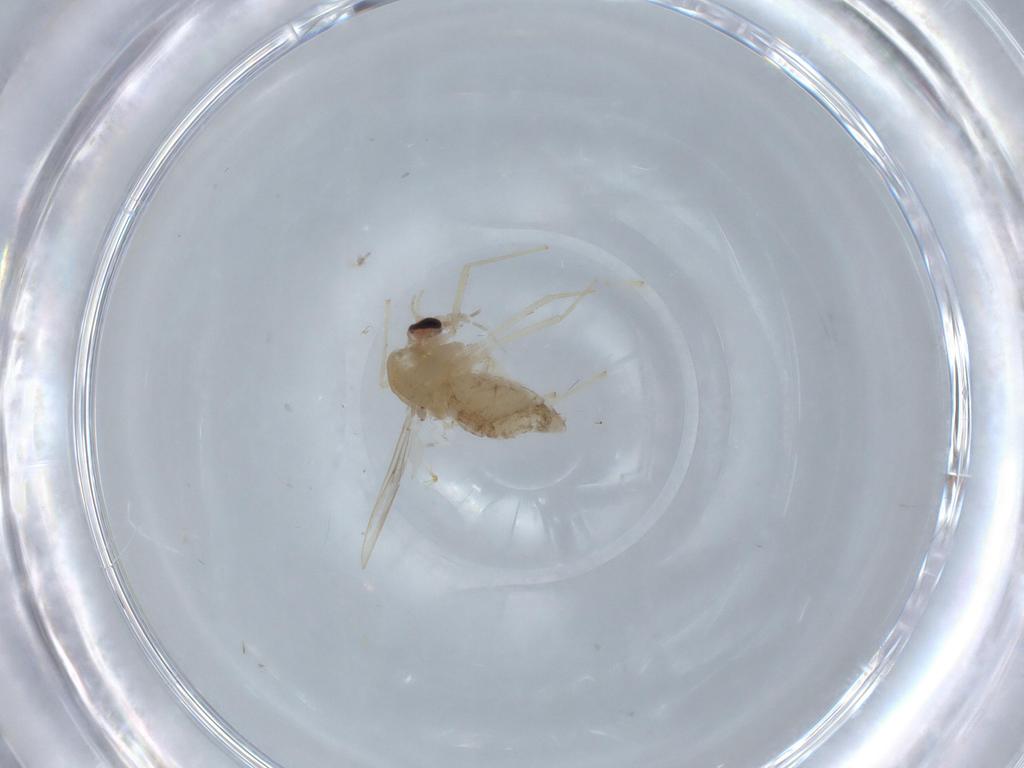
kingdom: Animalia
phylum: Arthropoda
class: Insecta
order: Diptera
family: Chironomidae
